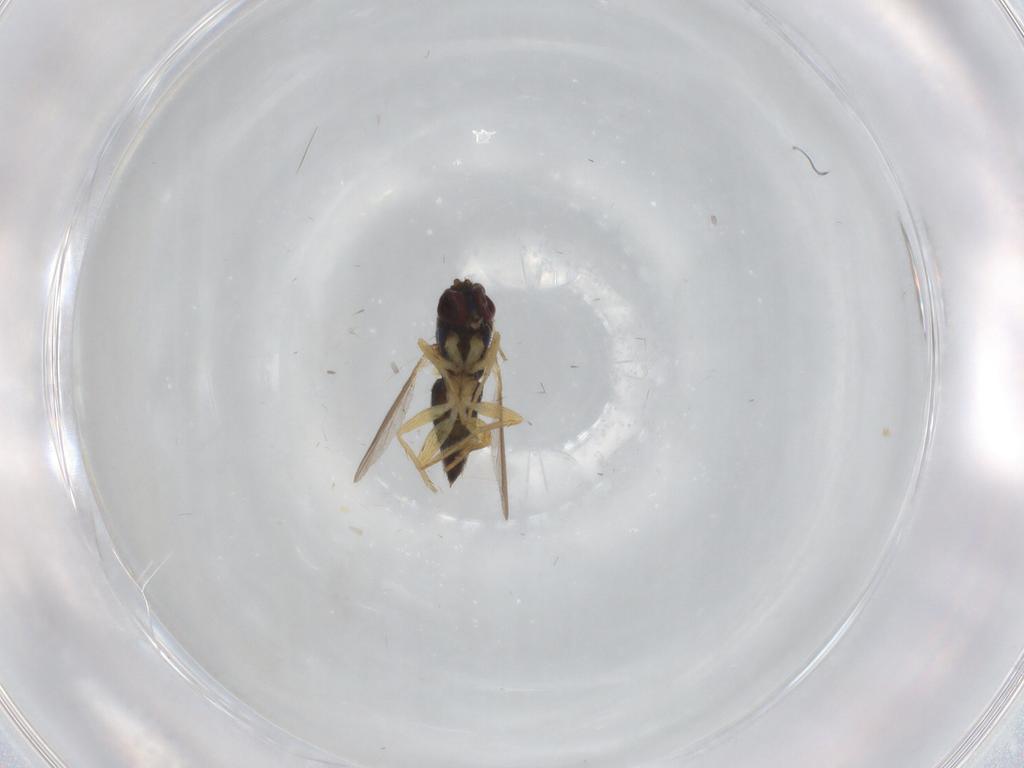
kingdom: Animalia
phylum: Arthropoda
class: Insecta
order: Diptera
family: Dolichopodidae
